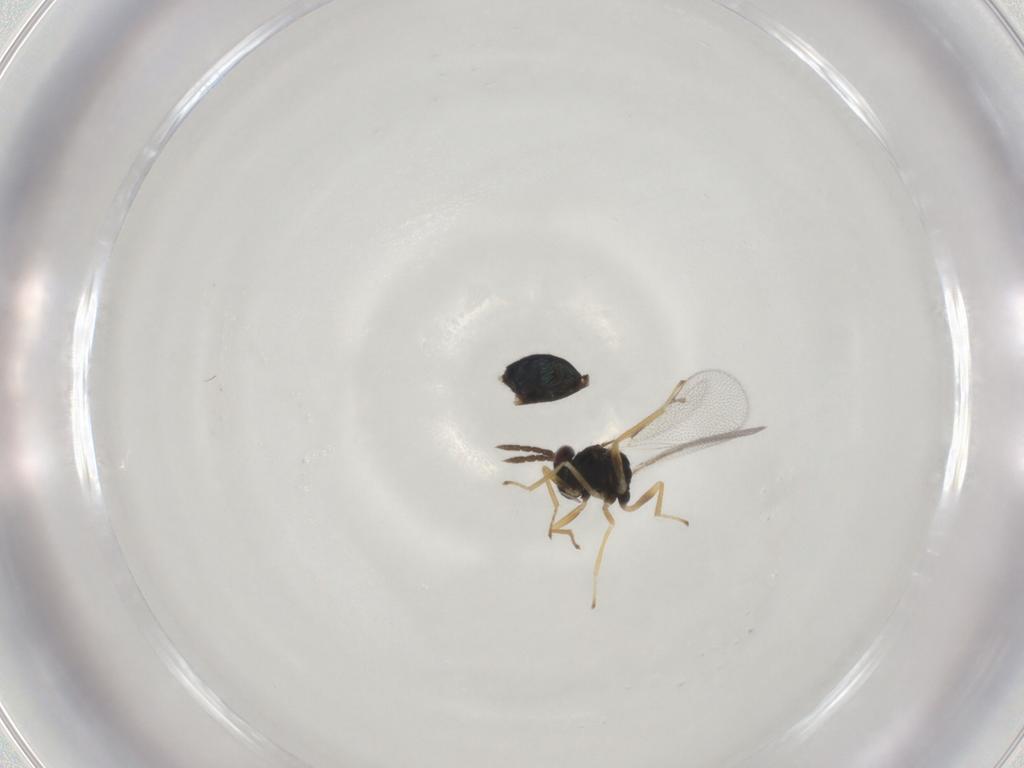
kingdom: Animalia
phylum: Arthropoda
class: Insecta
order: Hymenoptera
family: Eulophidae
